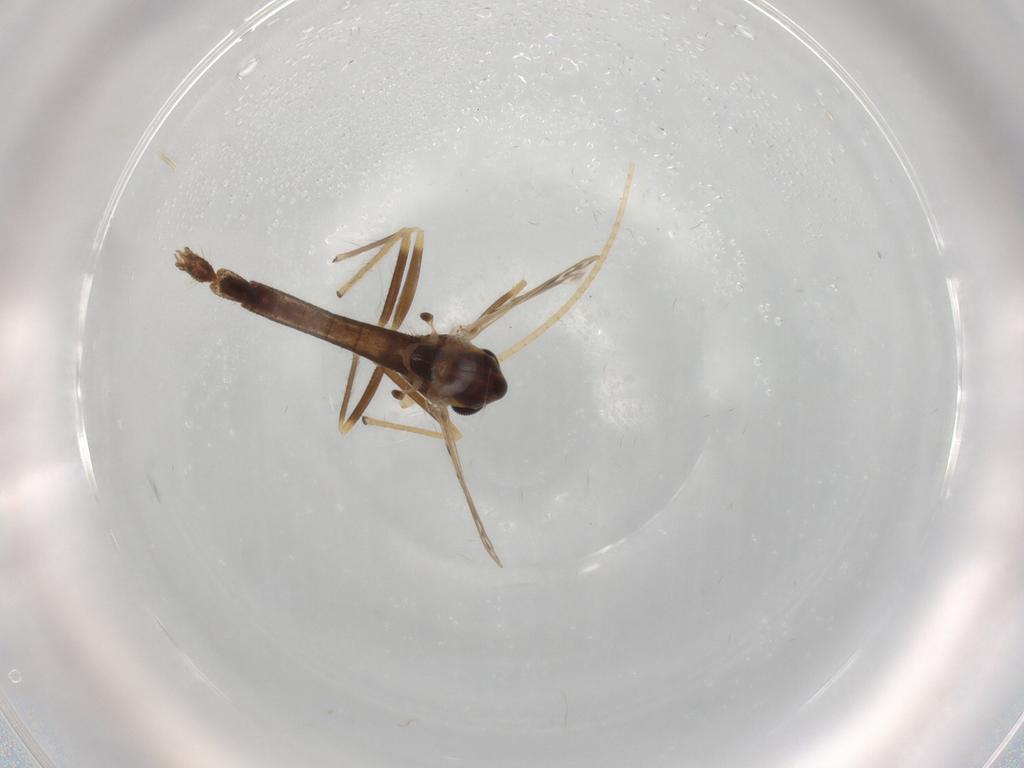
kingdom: Animalia
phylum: Arthropoda
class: Insecta
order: Diptera
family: Chironomidae
